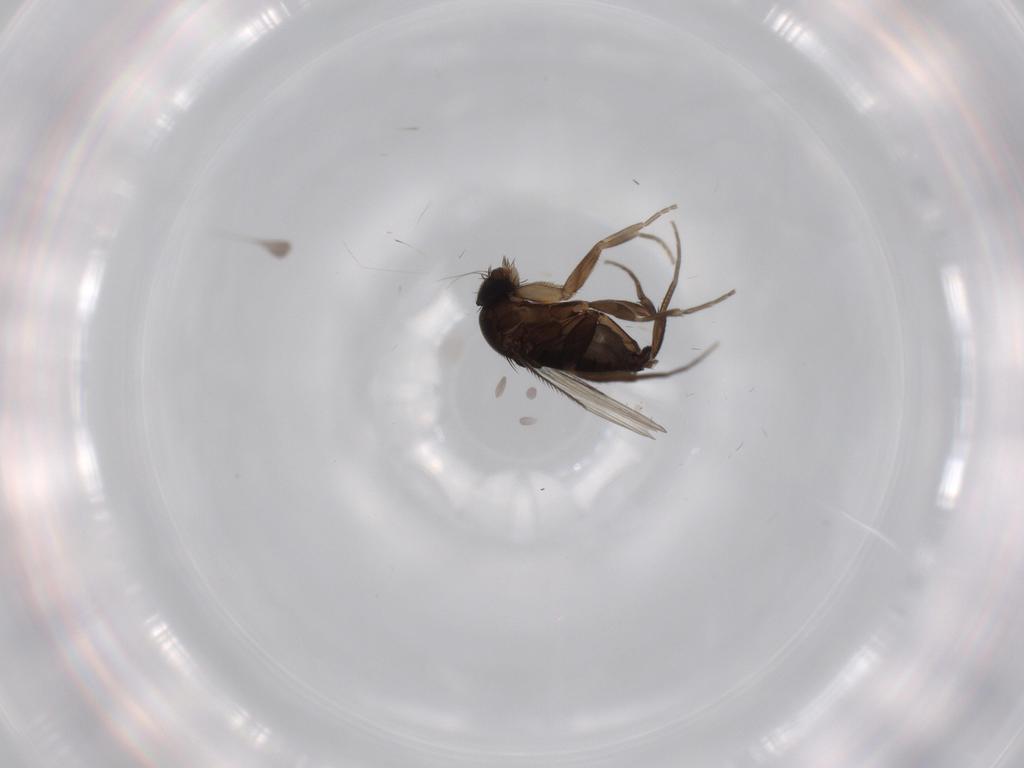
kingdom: Animalia
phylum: Arthropoda
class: Insecta
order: Diptera
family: Phoridae
